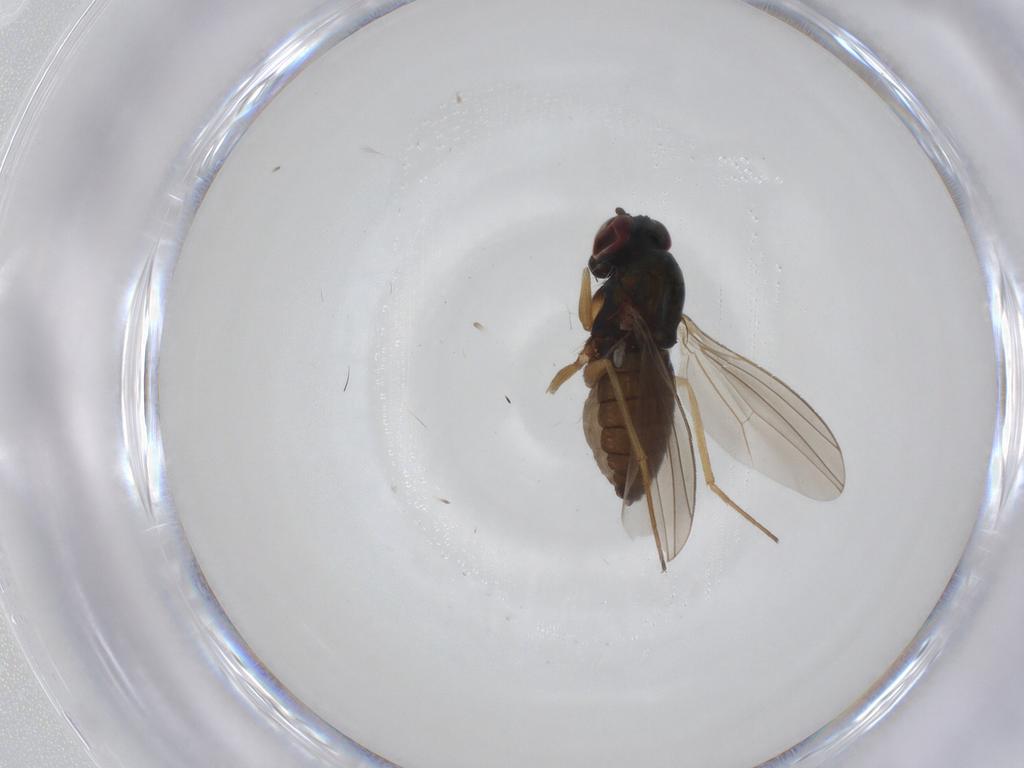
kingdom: Animalia
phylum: Arthropoda
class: Insecta
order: Diptera
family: Dolichopodidae
